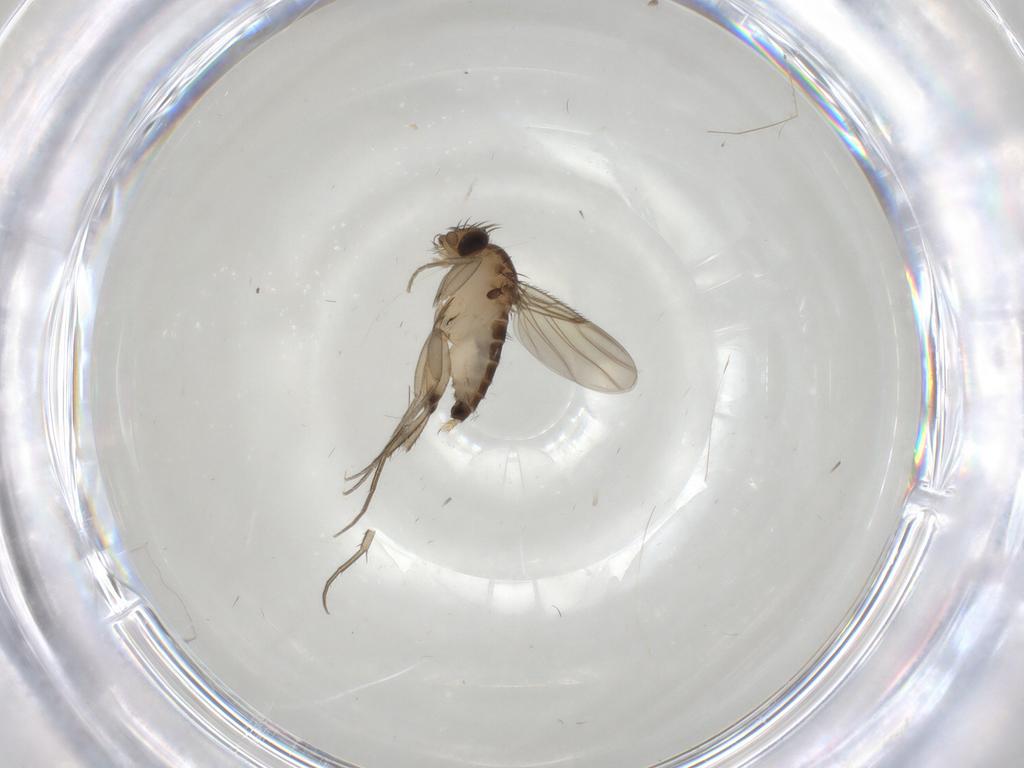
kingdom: Animalia
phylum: Arthropoda
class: Insecta
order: Diptera
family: Phoridae
